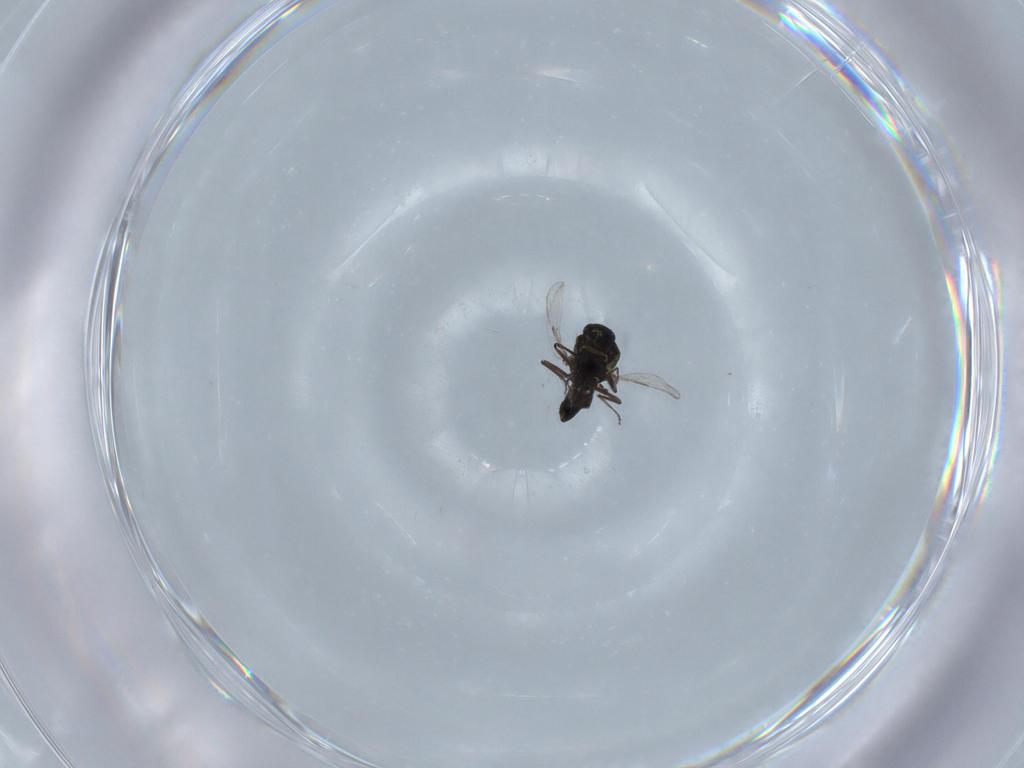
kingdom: Animalia
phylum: Arthropoda
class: Insecta
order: Diptera
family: Ceratopogonidae
